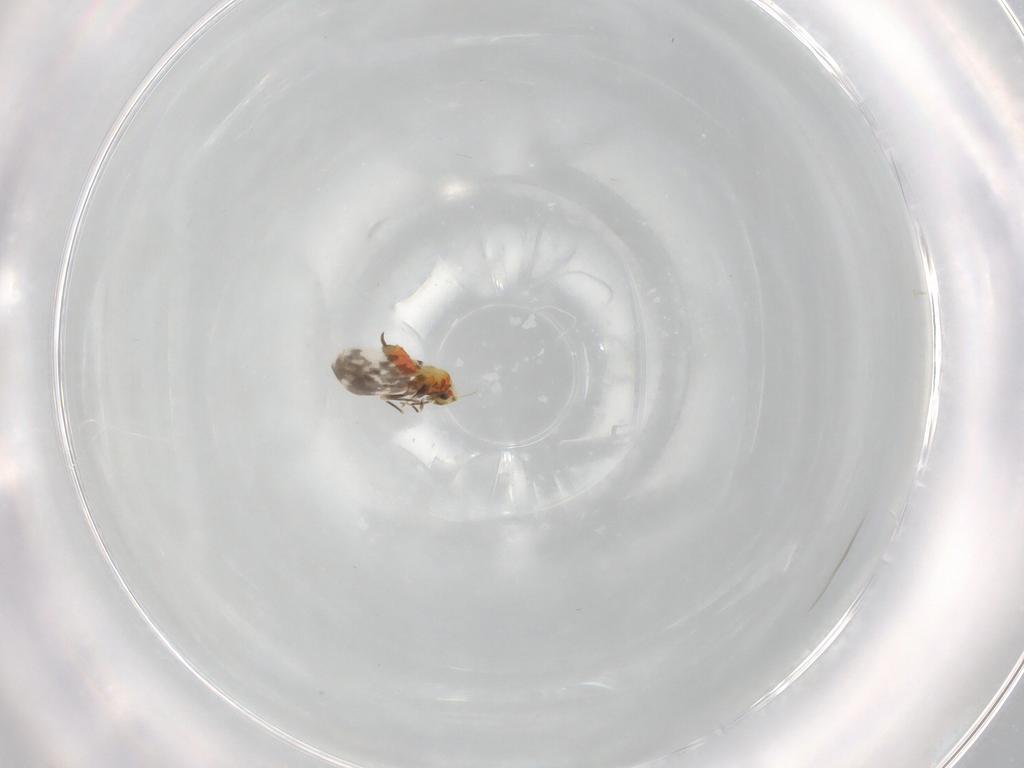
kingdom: Animalia
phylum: Arthropoda
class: Insecta
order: Hemiptera
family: Aleyrodidae
